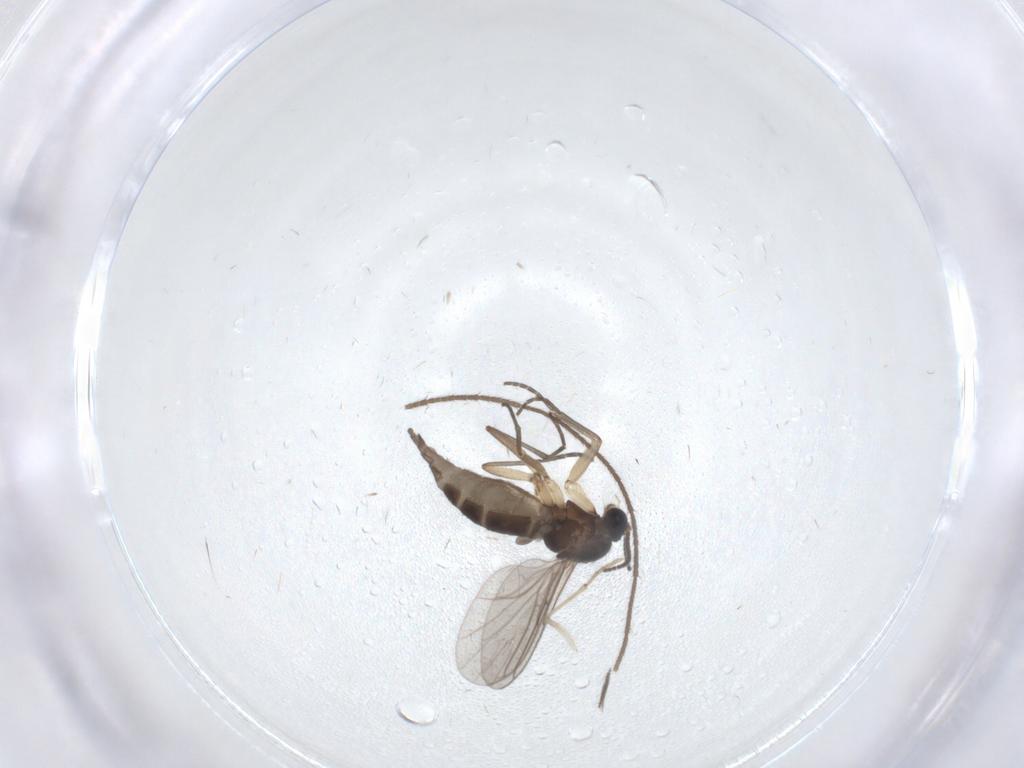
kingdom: Animalia
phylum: Arthropoda
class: Insecta
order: Diptera
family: Sciaridae
